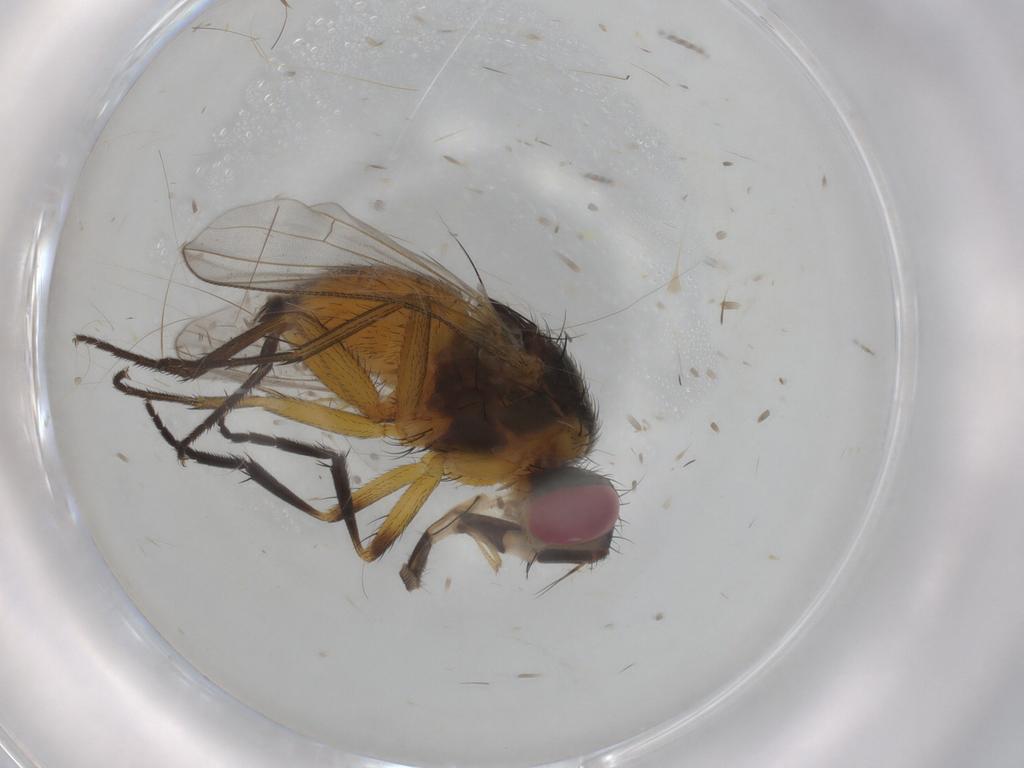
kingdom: Animalia
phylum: Arthropoda
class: Insecta
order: Diptera
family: Muscidae
